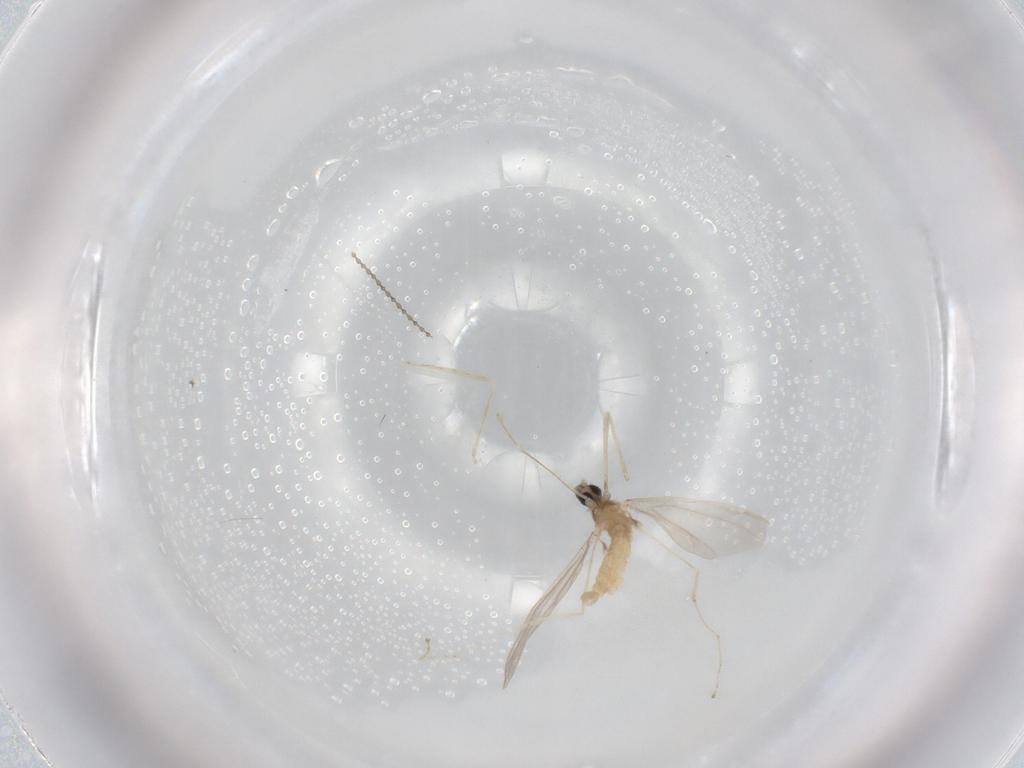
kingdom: Animalia
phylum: Arthropoda
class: Insecta
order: Diptera
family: Cecidomyiidae
